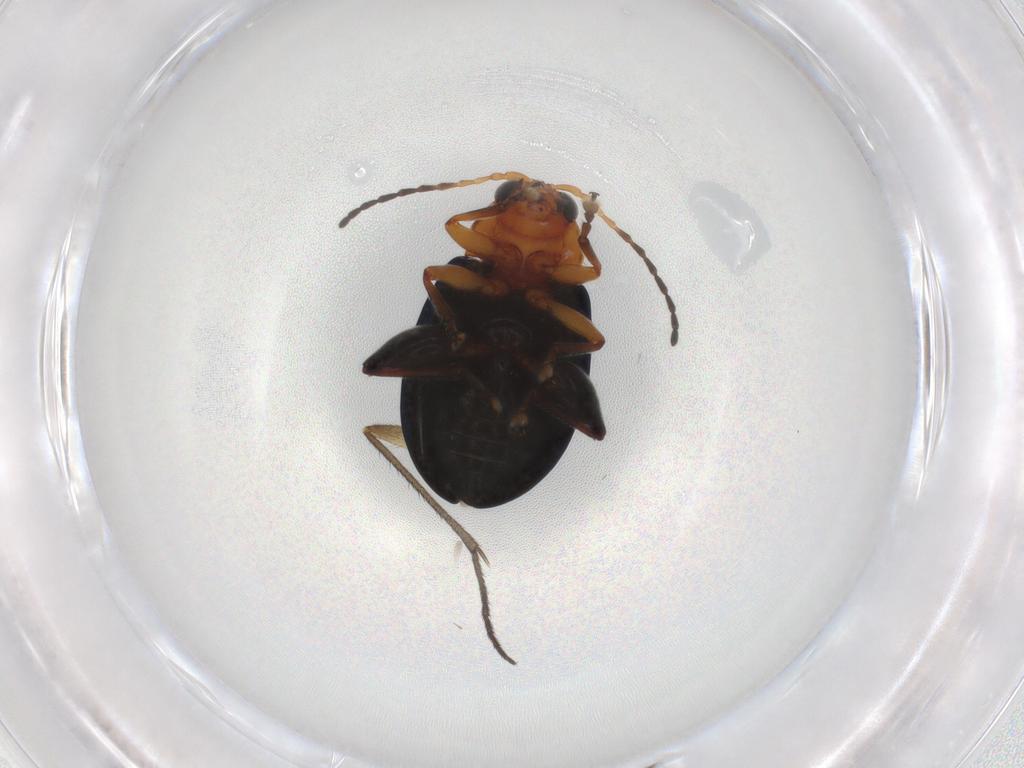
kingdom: Animalia
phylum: Arthropoda
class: Insecta
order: Coleoptera
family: Chrysomelidae
